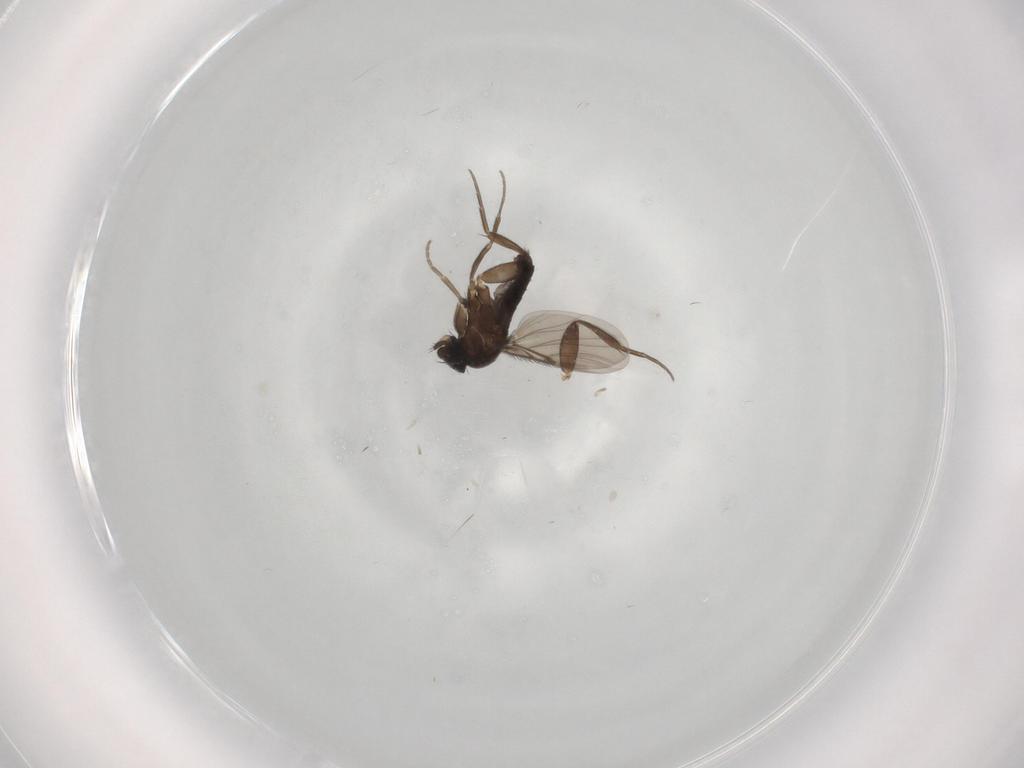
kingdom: Animalia
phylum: Arthropoda
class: Insecta
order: Diptera
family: Phoridae
